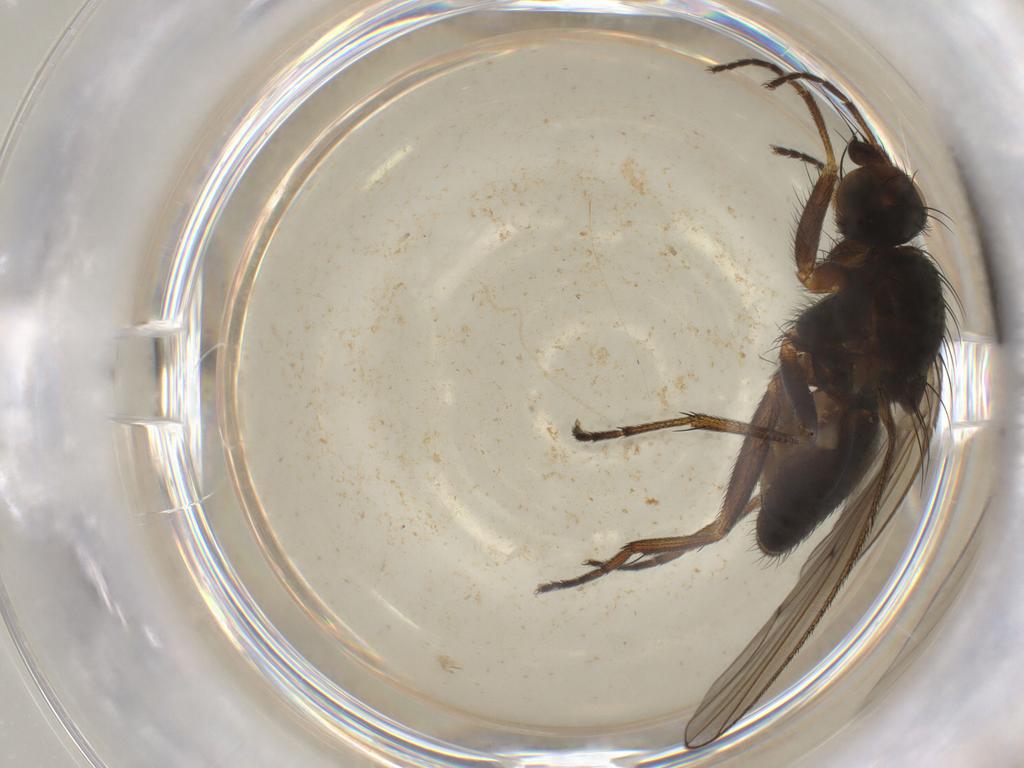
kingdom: Animalia
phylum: Arthropoda
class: Insecta
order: Diptera
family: Heleomyzidae
